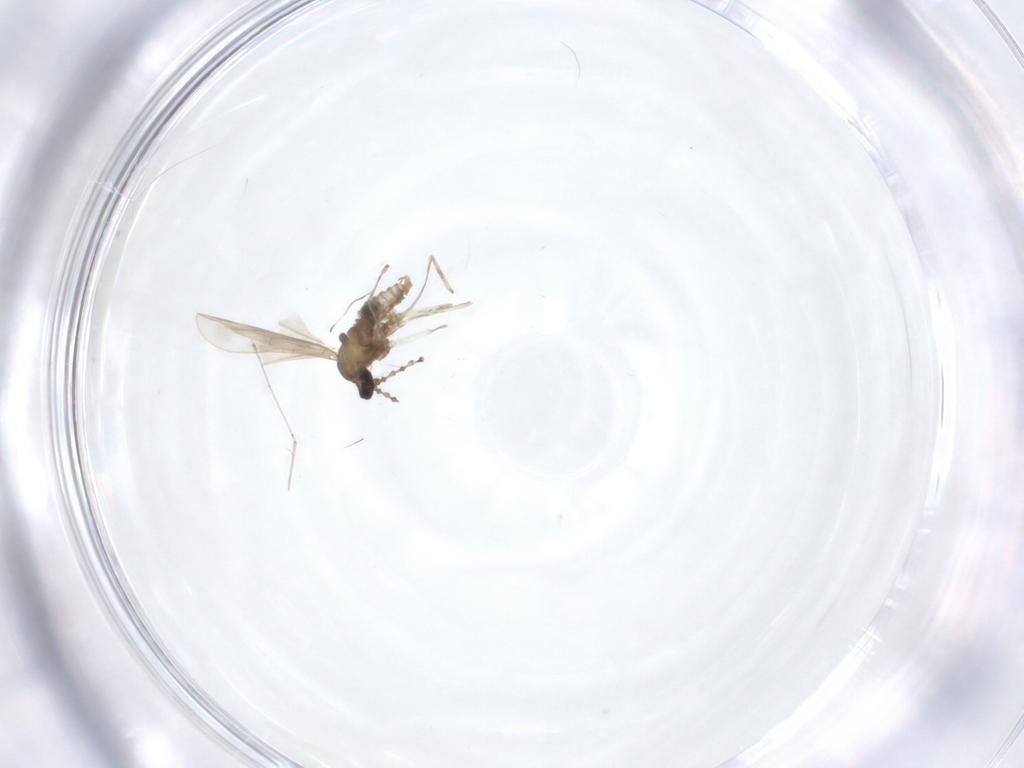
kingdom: Animalia
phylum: Arthropoda
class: Insecta
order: Diptera
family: Cecidomyiidae
